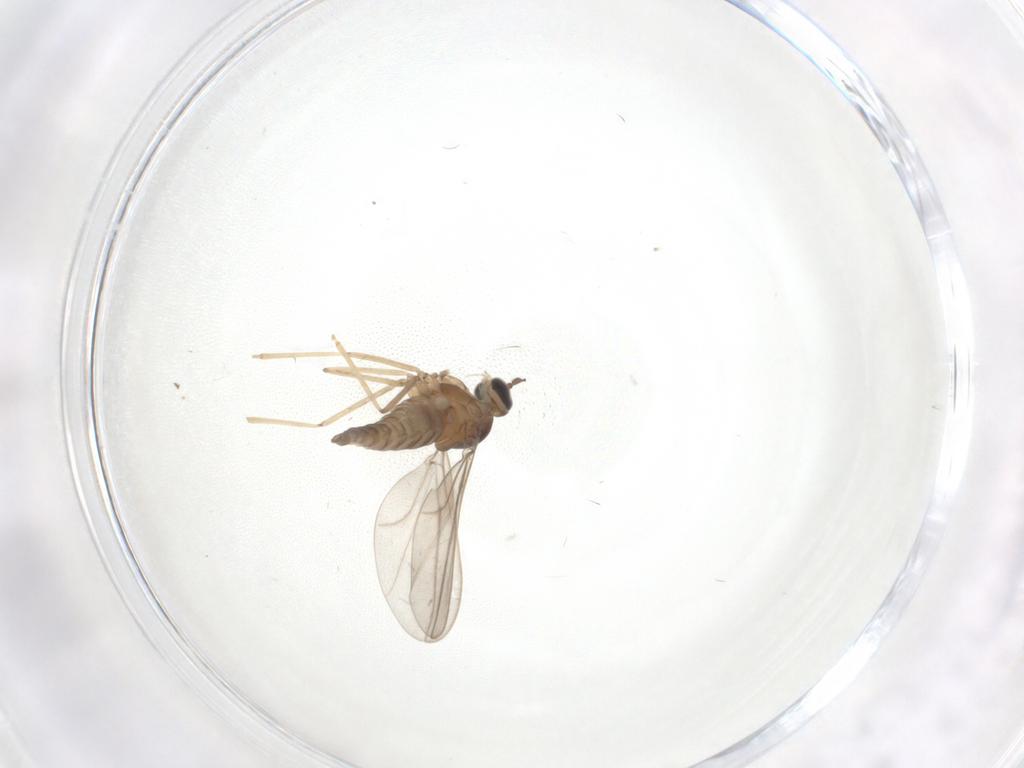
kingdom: Animalia
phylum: Arthropoda
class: Insecta
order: Diptera
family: Cecidomyiidae
